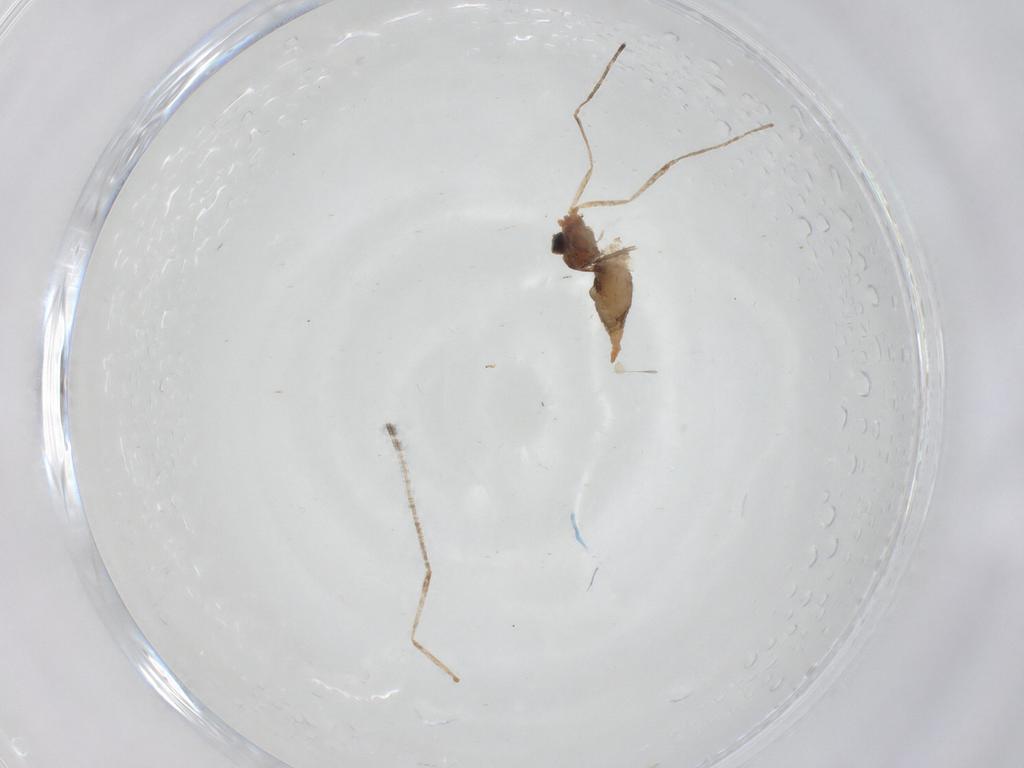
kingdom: Animalia
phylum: Arthropoda
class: Insecta
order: Diptera
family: Cecidomyiidae
